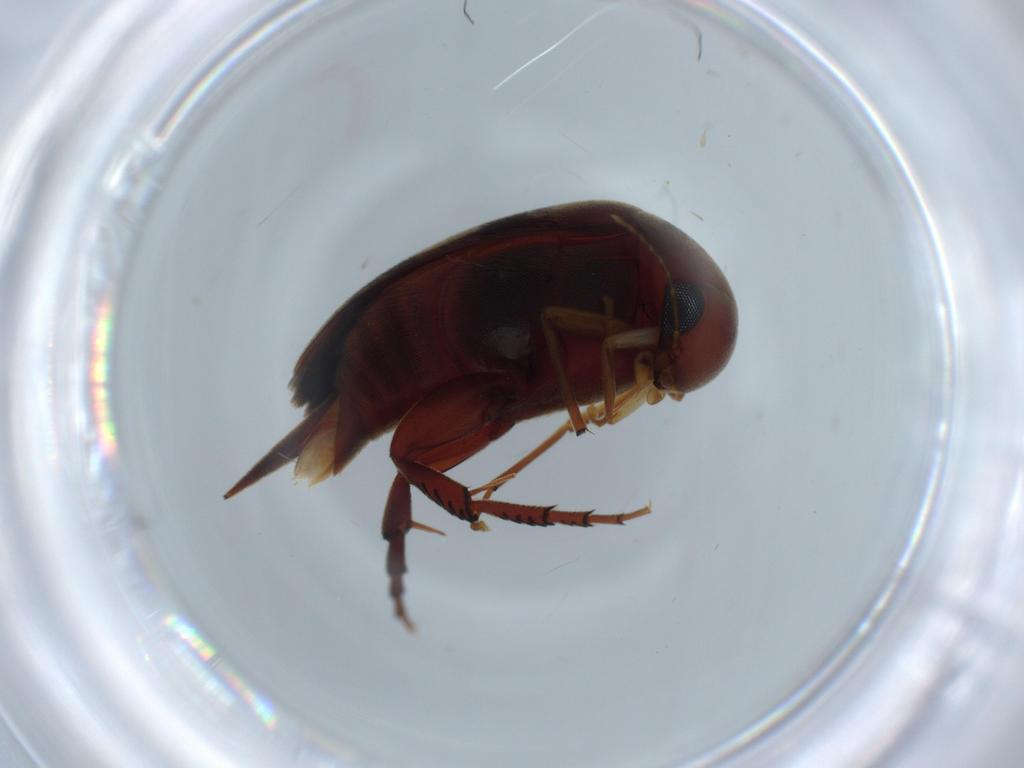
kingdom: Animalia
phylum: Arthropoda
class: Insecta
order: Coleoptera
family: Mordellidae
